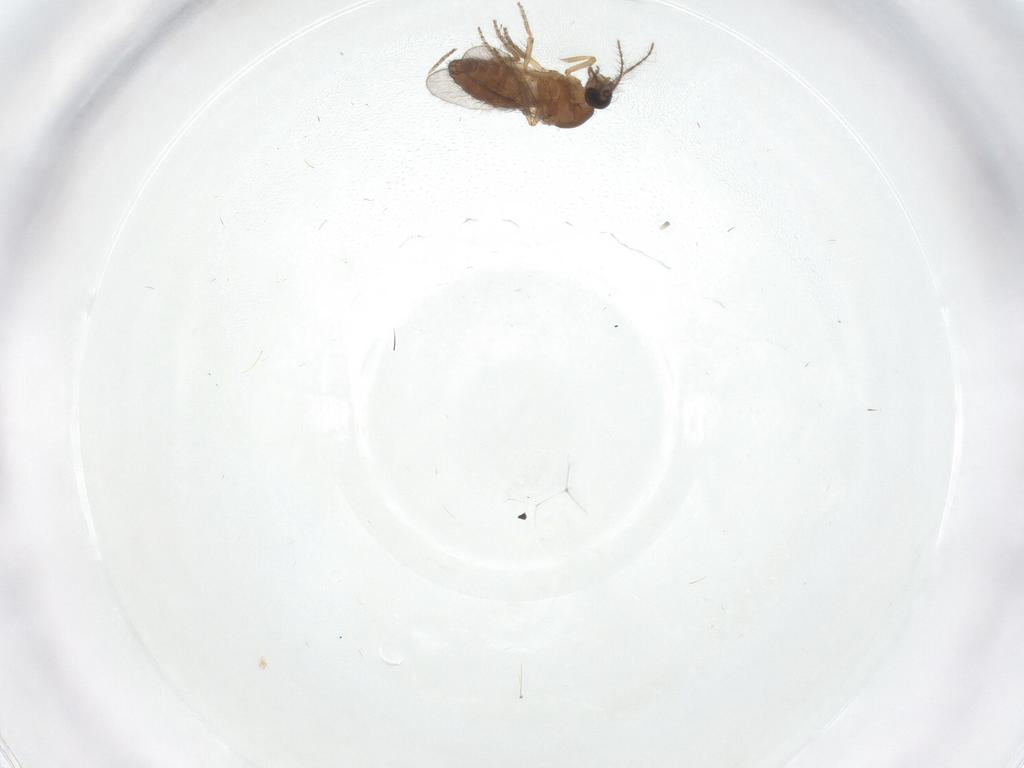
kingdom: Animalia
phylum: Arthropoda
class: Insecta
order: Diptera
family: Ceratopogonidae
